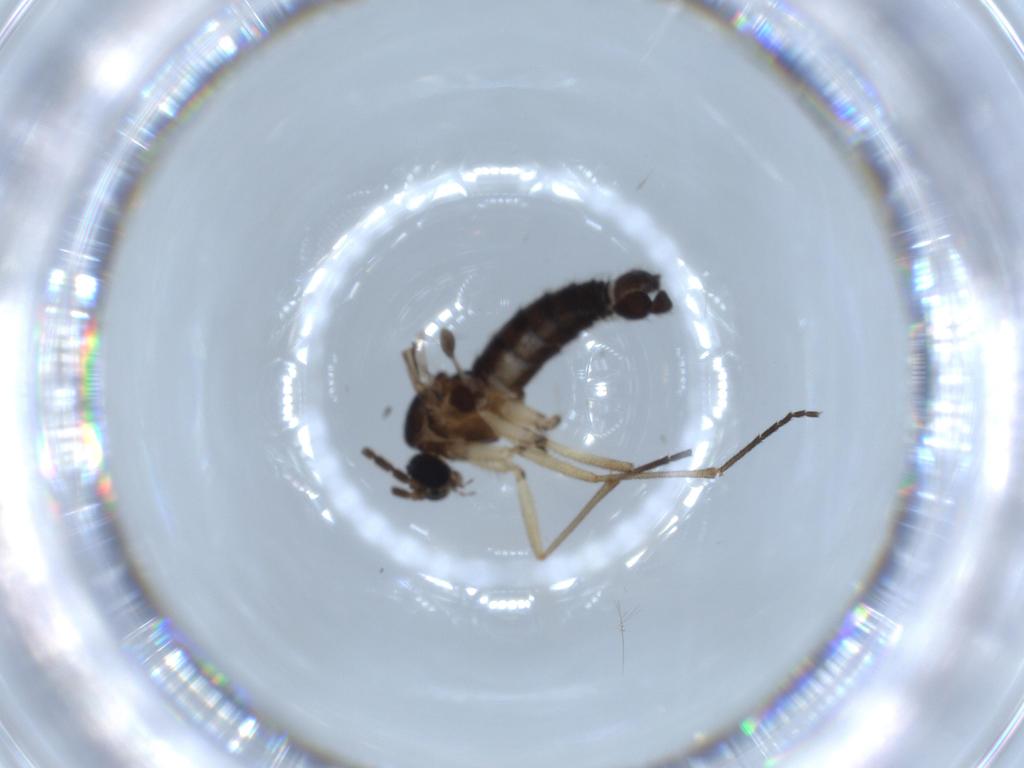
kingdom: Animalia
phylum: Arthropoda
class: Insecta
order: Diptera
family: Sciaridae
